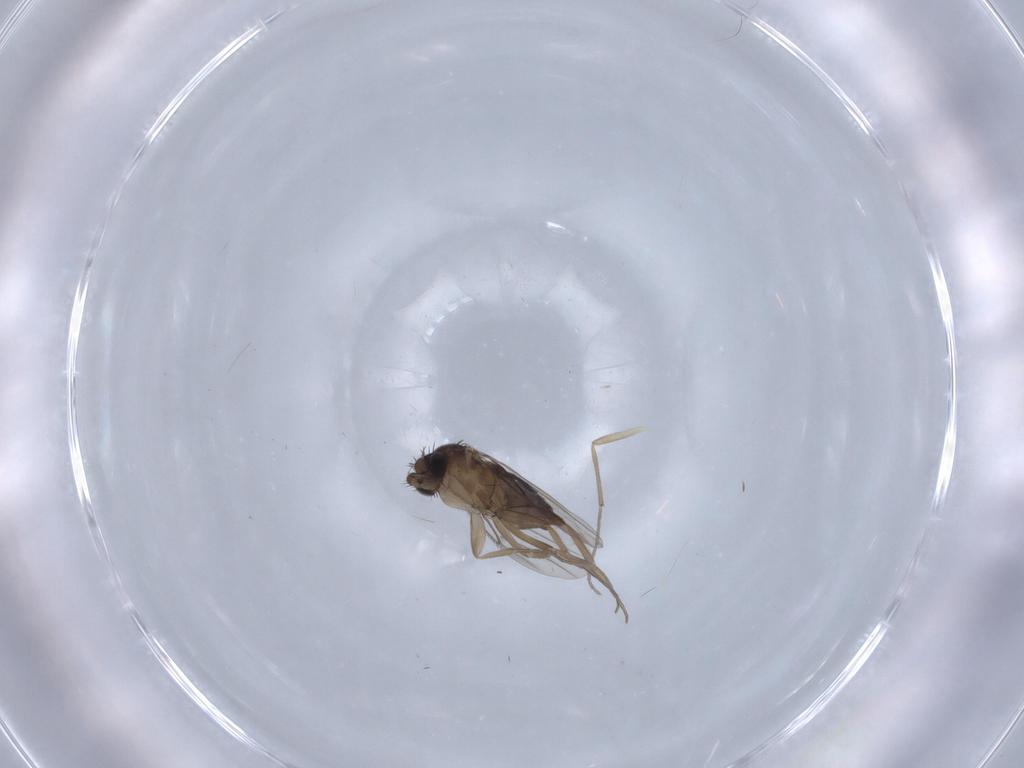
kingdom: Animalia
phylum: Arthropoda
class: Insecta
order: Diptera
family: Phoridae
